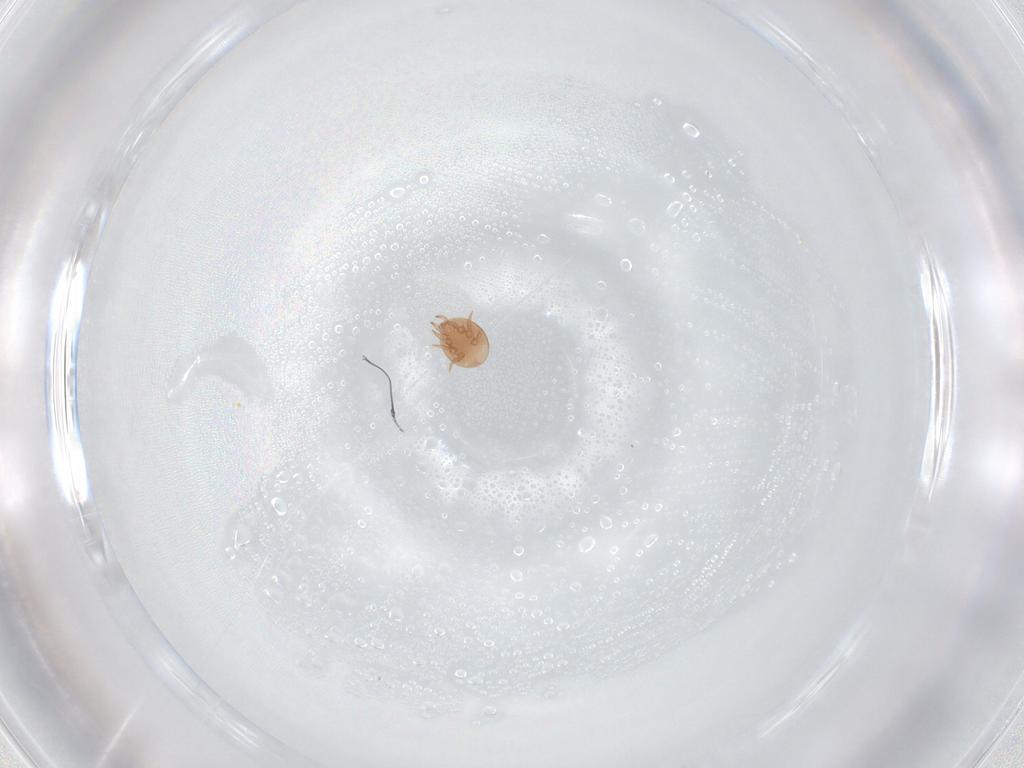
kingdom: Animalia
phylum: Arthropoda
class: Arachnida
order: Mesostigmata
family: Trematuridae
